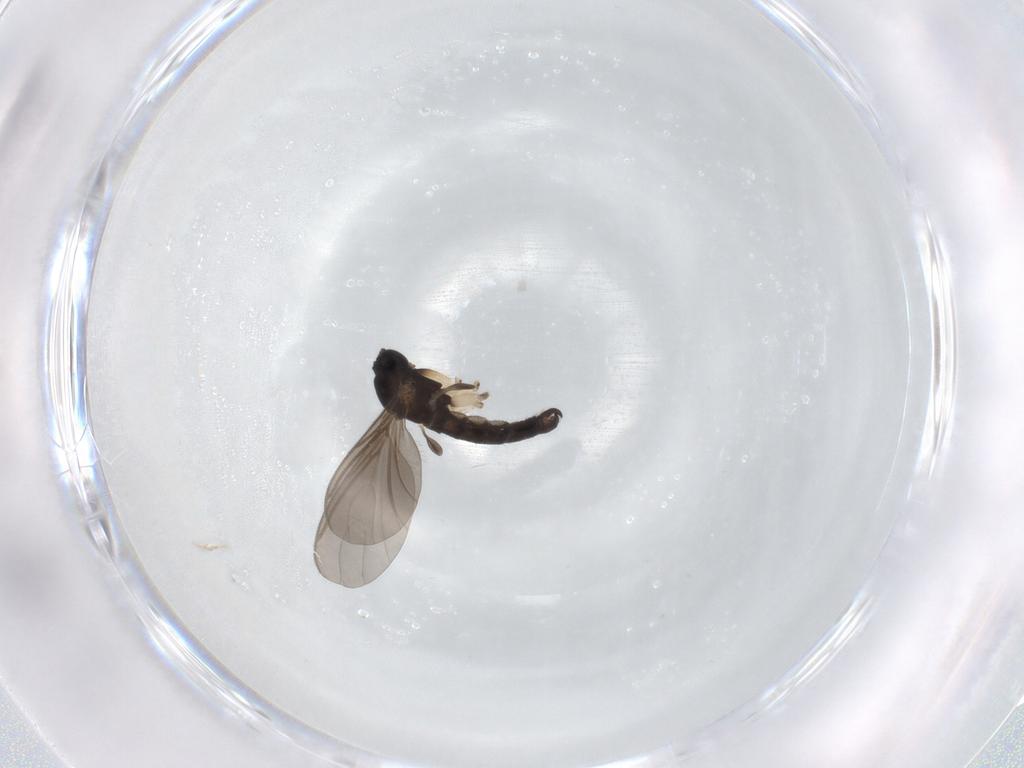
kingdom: Animalia
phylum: Arthropoda
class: Insecta
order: Diptera
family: Sciaridae
